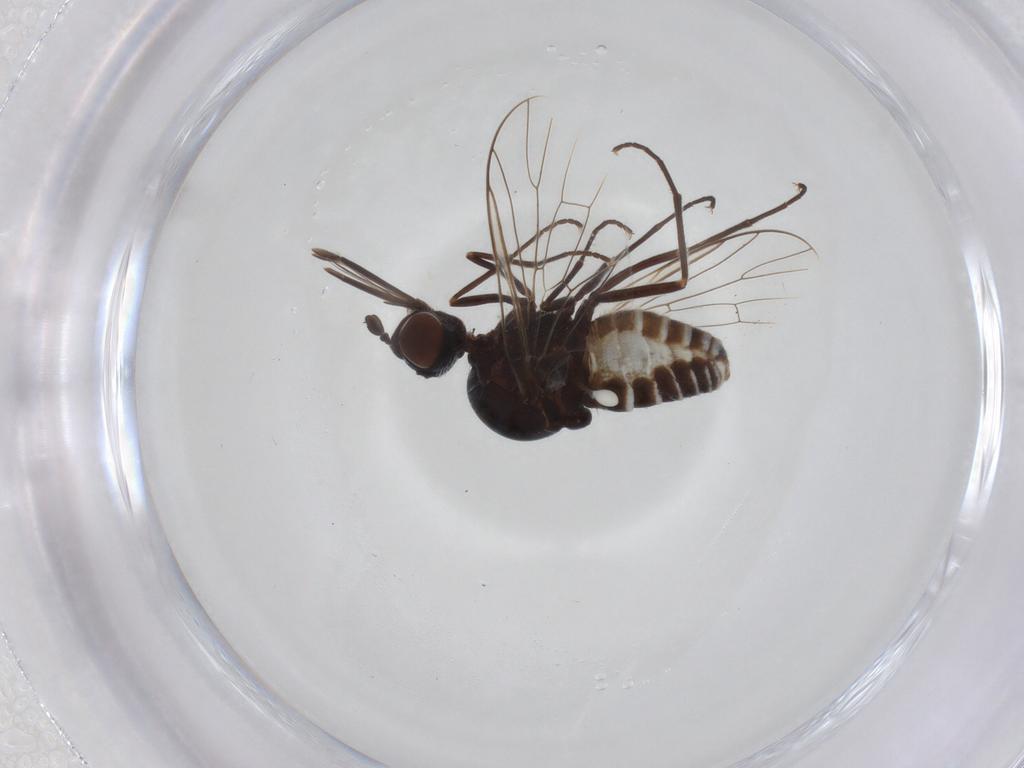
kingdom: Animalia
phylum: Arthropoda
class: Insecta
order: Diptera
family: Bombyliidae
